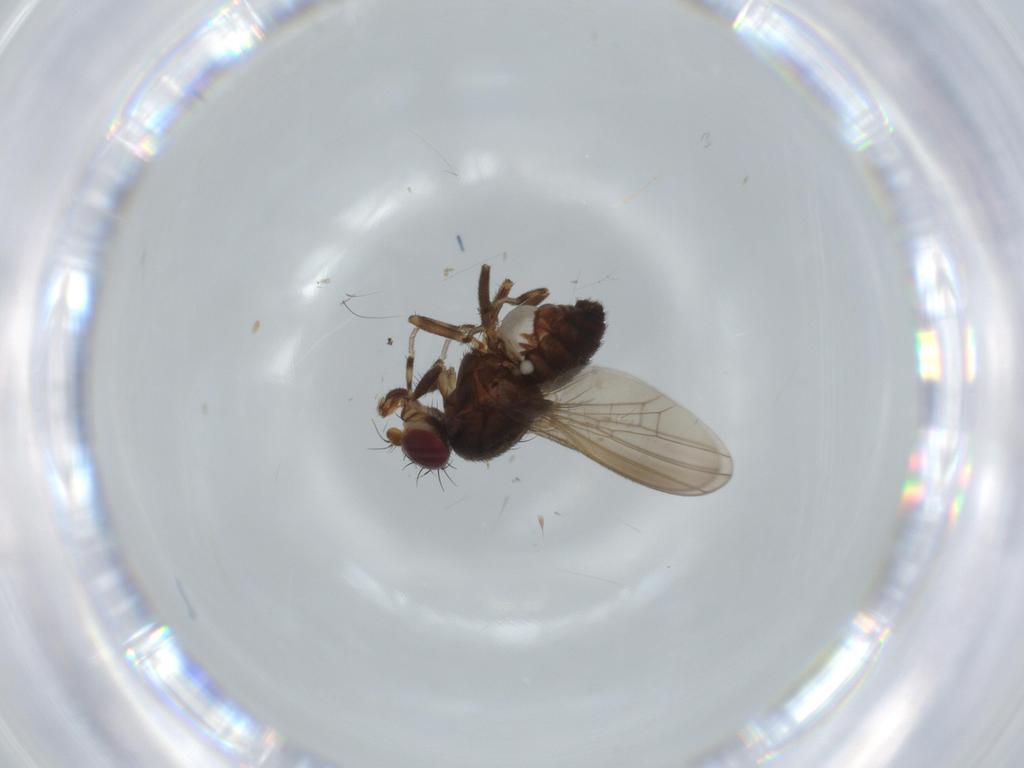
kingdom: Animalia
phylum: Arthropoda
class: Insecta
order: Diptera
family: Heleomyzidae
